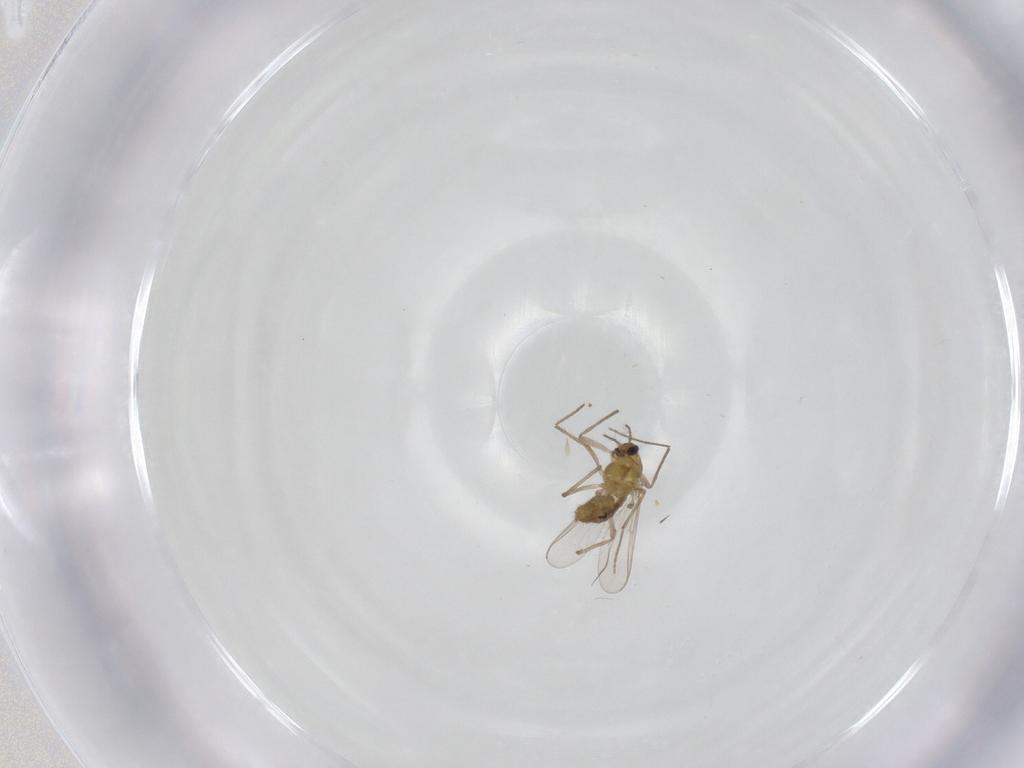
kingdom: Animalia
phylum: Arthropoda
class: Insecta
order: Diptera
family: Chironomidae
